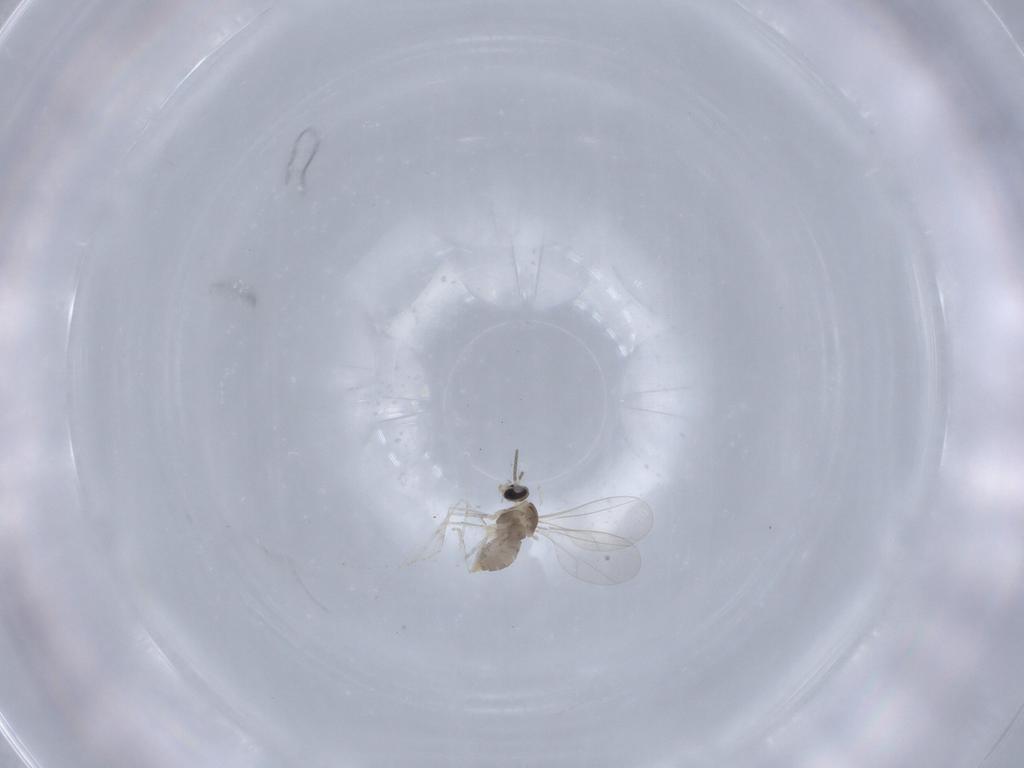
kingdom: Animalia
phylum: Arthropoda
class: Insecta
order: Diptera
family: Cecidomyiidae
